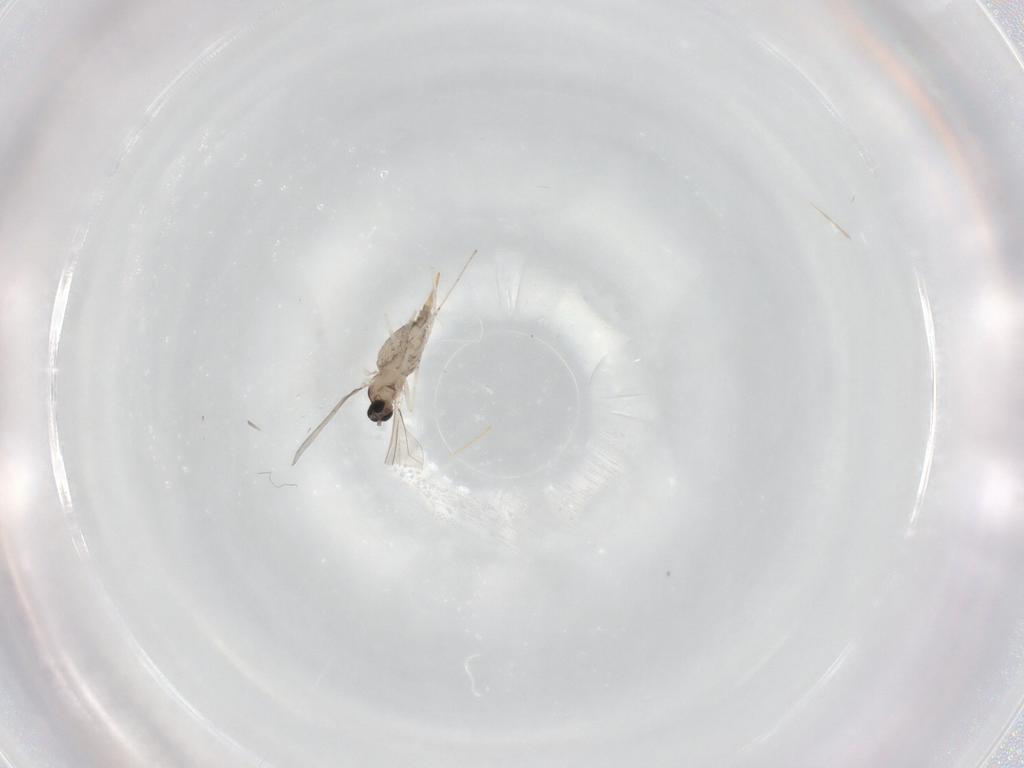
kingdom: Animalia
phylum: Arthropoda
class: Insecta
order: Diptera
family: Cecidomyiidae
